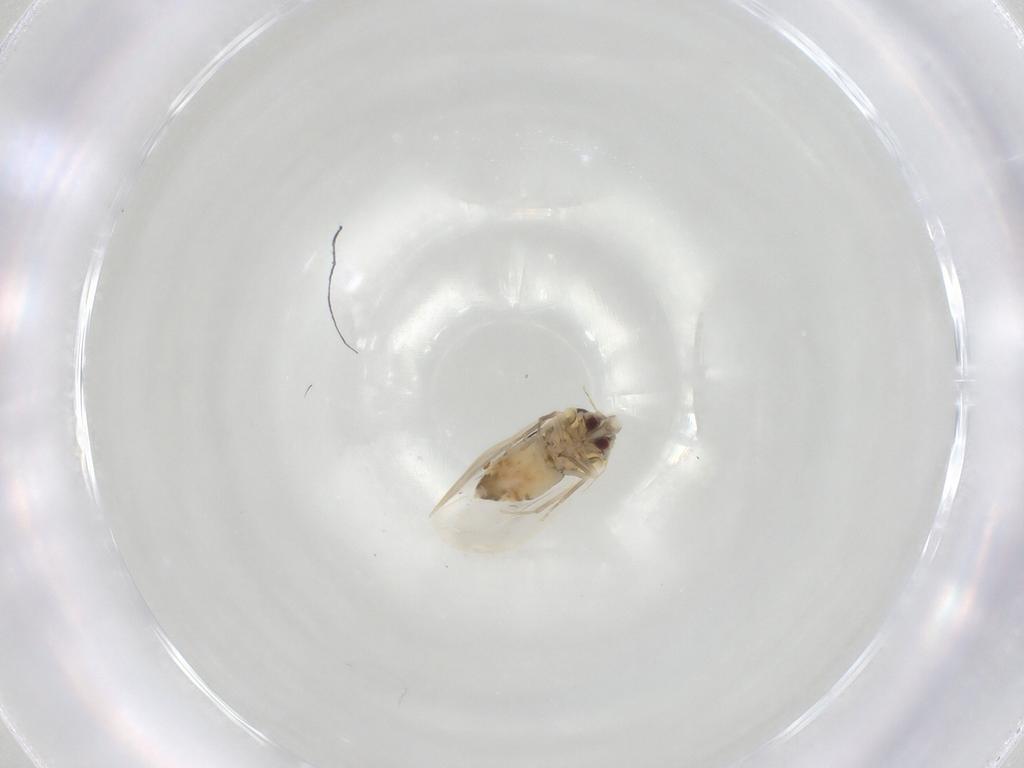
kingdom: Animalia
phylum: Arthropoda
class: Insecta
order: Hemiptera
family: Aleyrodidae
